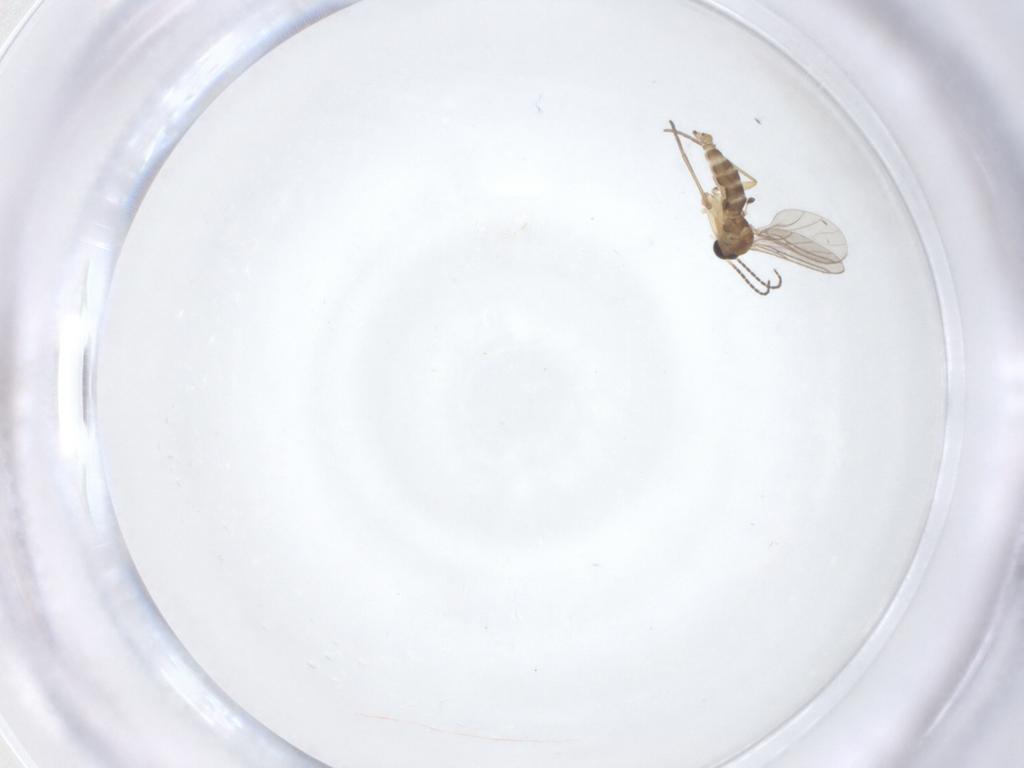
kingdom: Animalia
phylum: Arthropoda
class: Insecta
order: Diptera
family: Sciaridae
